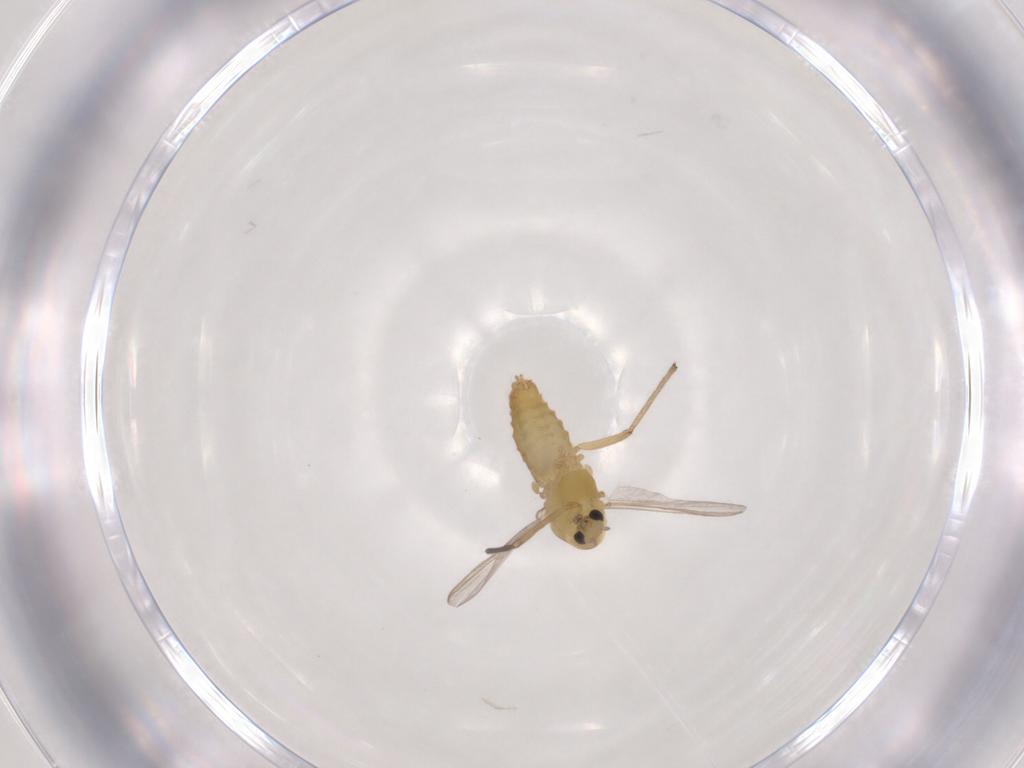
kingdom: Animalia
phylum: Arthropoda
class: Insecta
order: Diptera
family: Chironomidae
